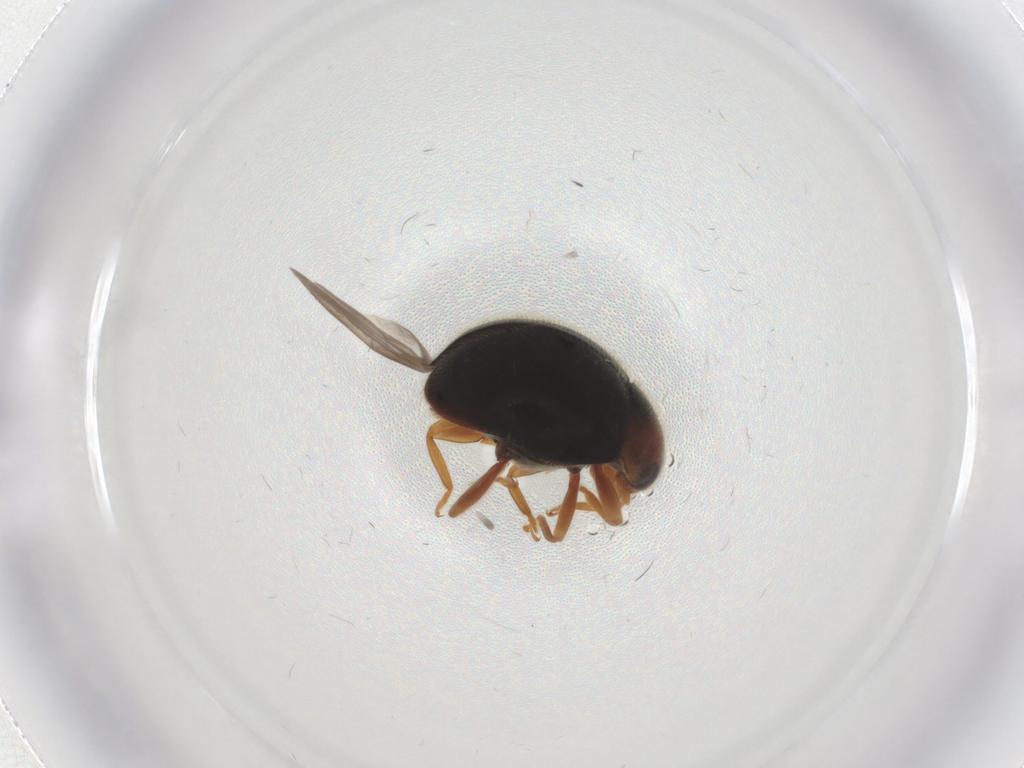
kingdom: Animalia
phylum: Arthropoda
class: Insecta
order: Coleoptera
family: Coccinellidae
